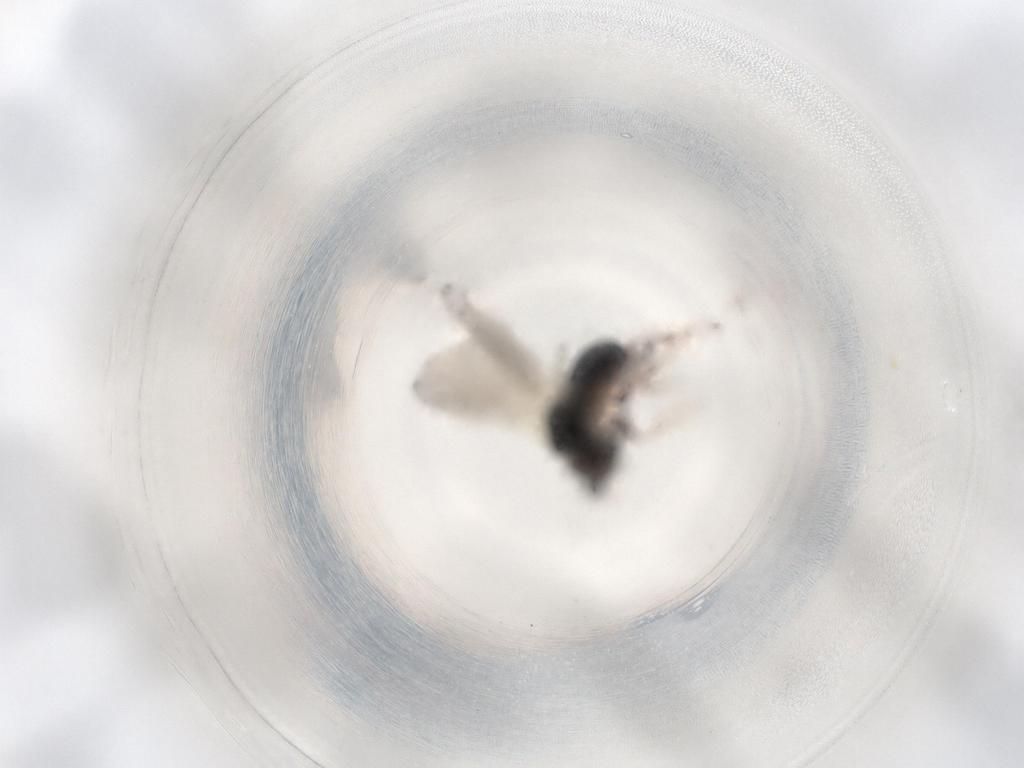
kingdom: Animalia
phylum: Arthropoda
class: Insecta
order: Hymenoptera
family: Diapriidae
